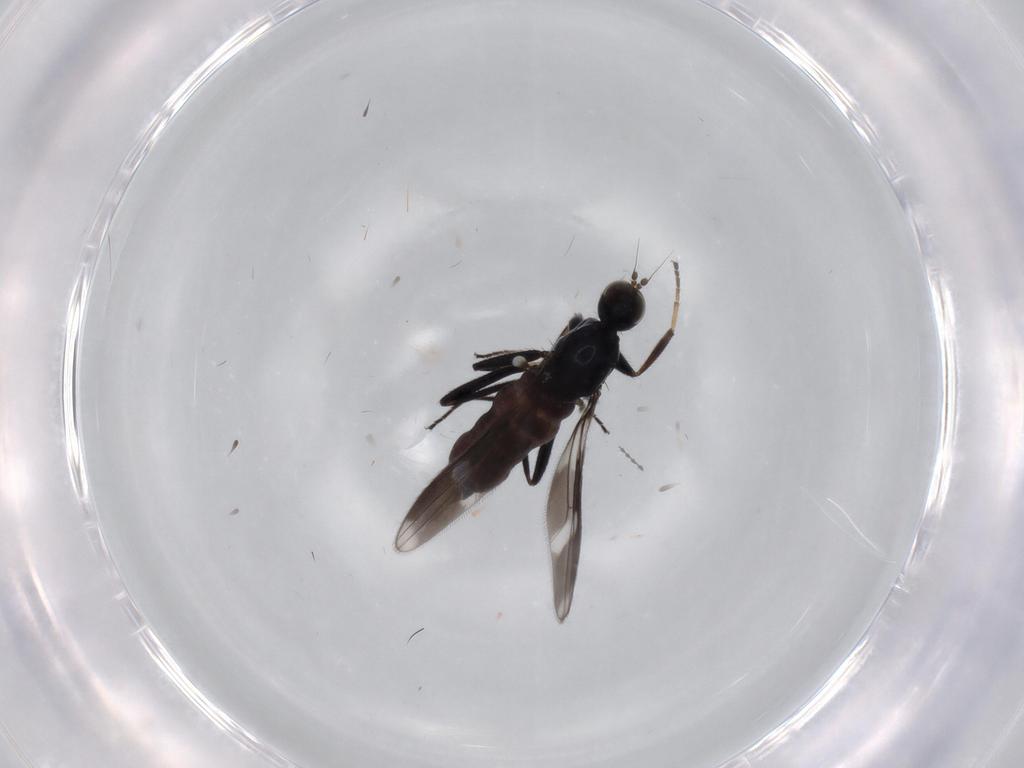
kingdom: Animalia
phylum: Arthropoda
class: Insecta
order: Diptera
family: Hybotidae
